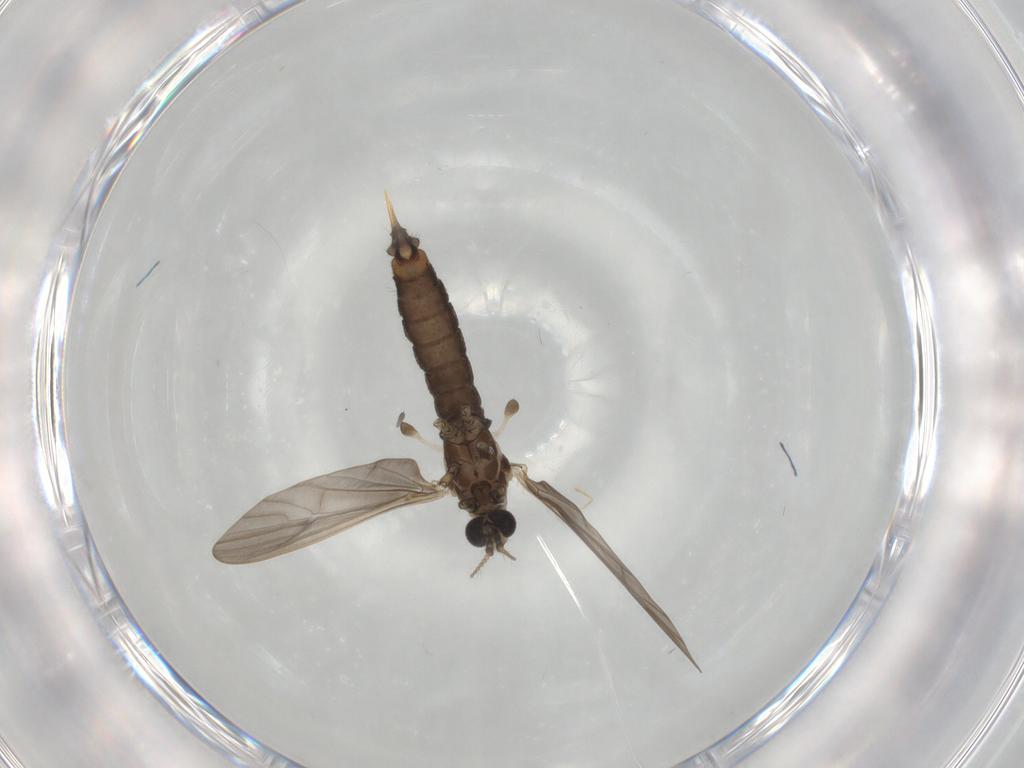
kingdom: Animalia
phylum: Arthropoda
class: Insecta
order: Diptera
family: Limoniidae
